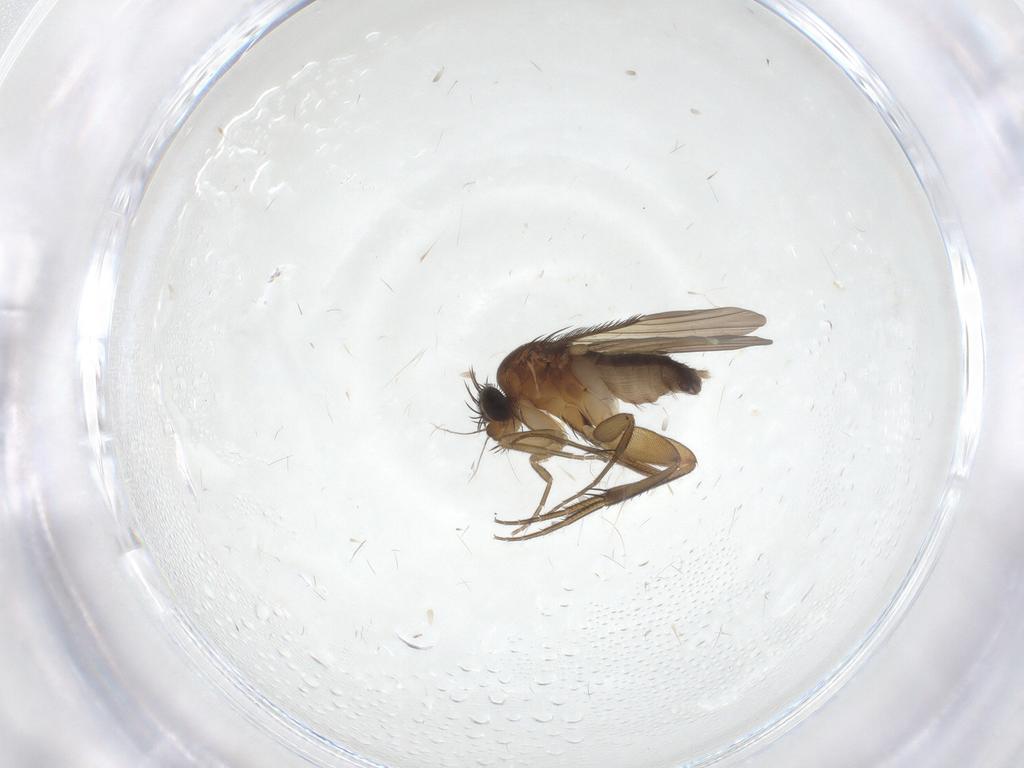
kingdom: Animalia
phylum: Arthropoda
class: Insecta
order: Diptera
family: Phoridae
